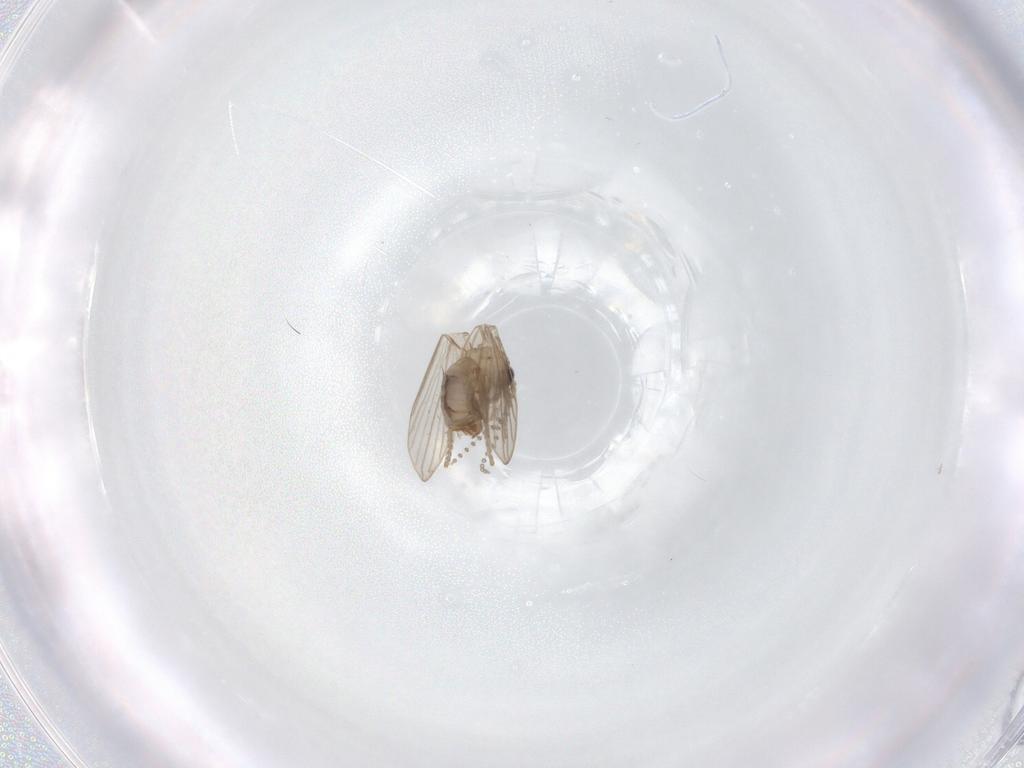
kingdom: Animalia
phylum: Arthropoda
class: Insecta
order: Diptera
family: Psychodidae
